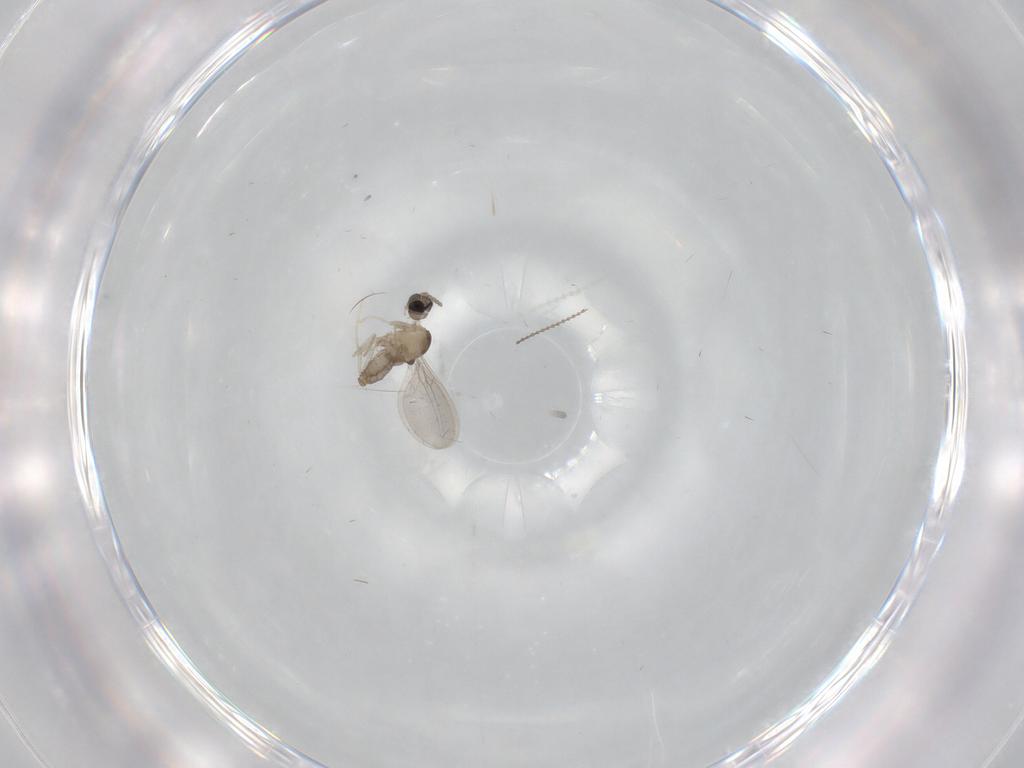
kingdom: Animalia
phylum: Arthropoda
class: Insecta
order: Diptera
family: Cecidomyiidae
